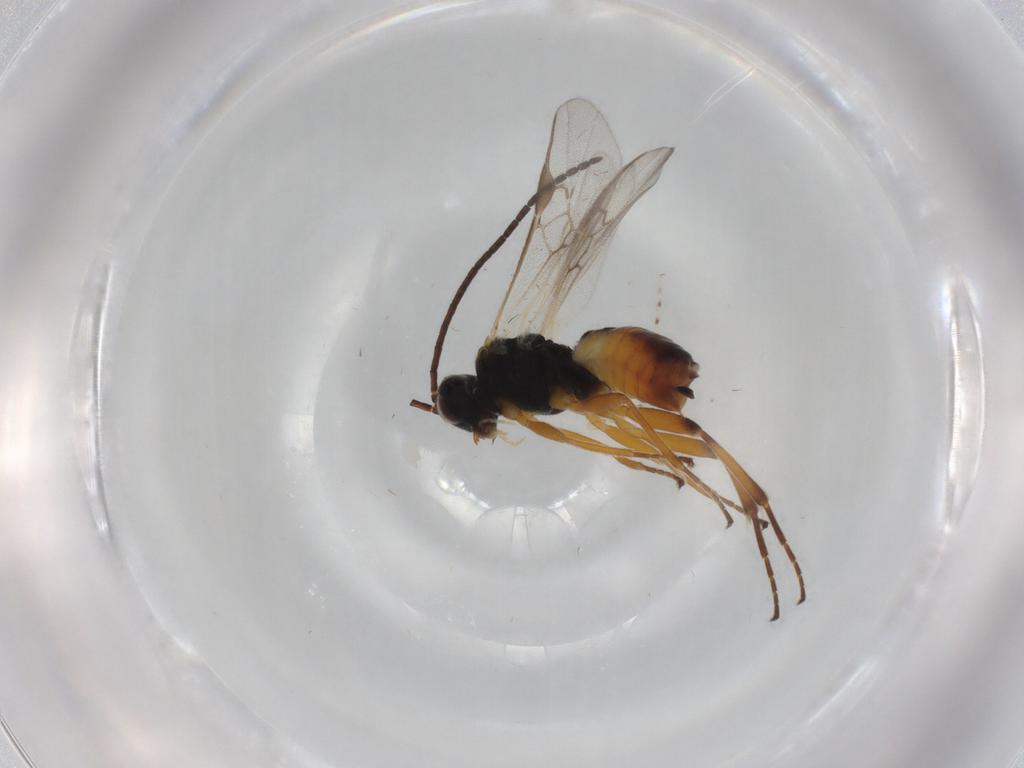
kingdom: Animalia
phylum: Arthropoda
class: Insecta
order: Hymenoptera
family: Braconidae
